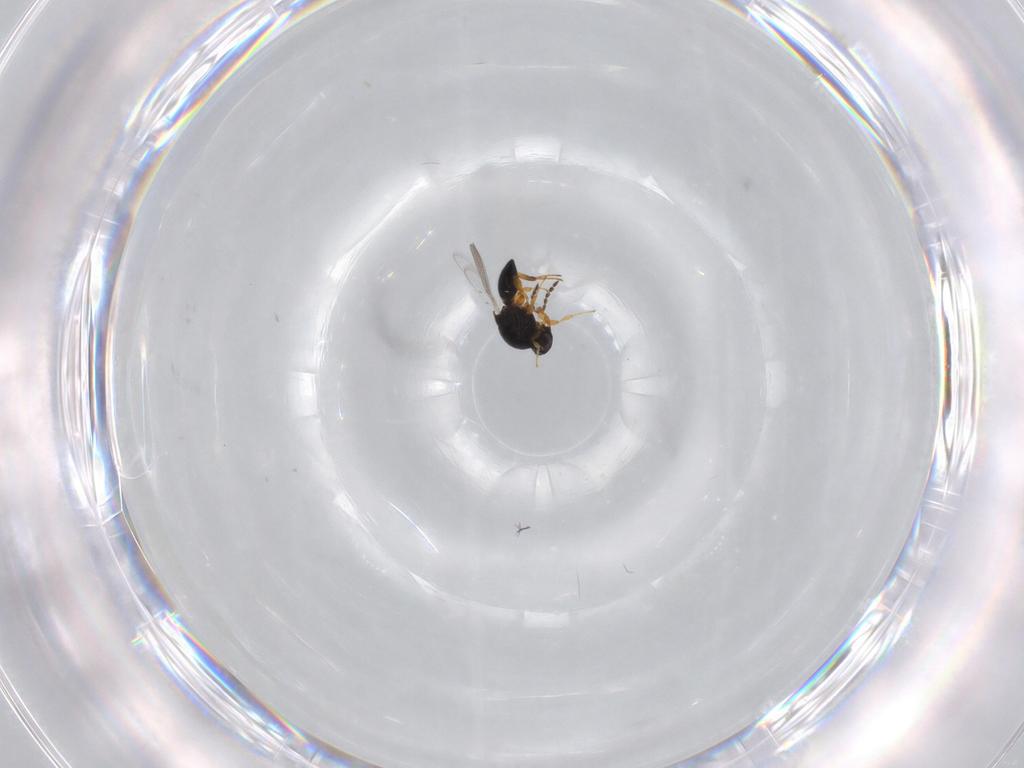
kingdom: Animalia
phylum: Arthropoda
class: Insecta
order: Hymenoptera
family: Platygastridae
